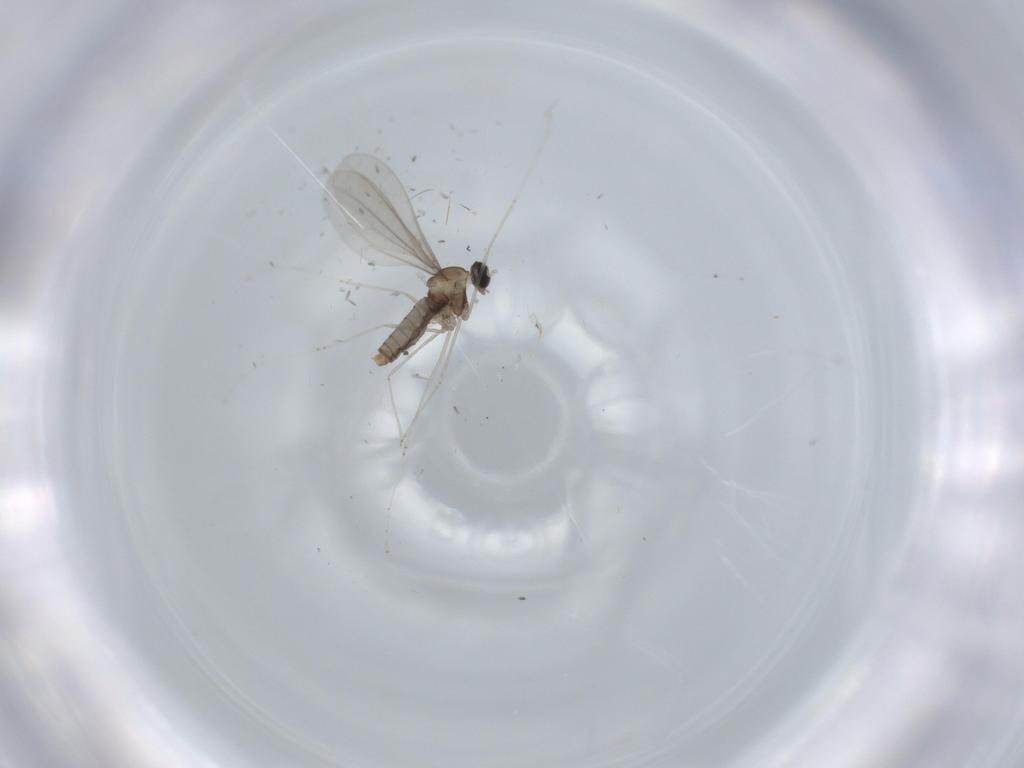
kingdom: Animalia
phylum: Arthropoda
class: Insecta
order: Diptera
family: Cecidomyiidae
